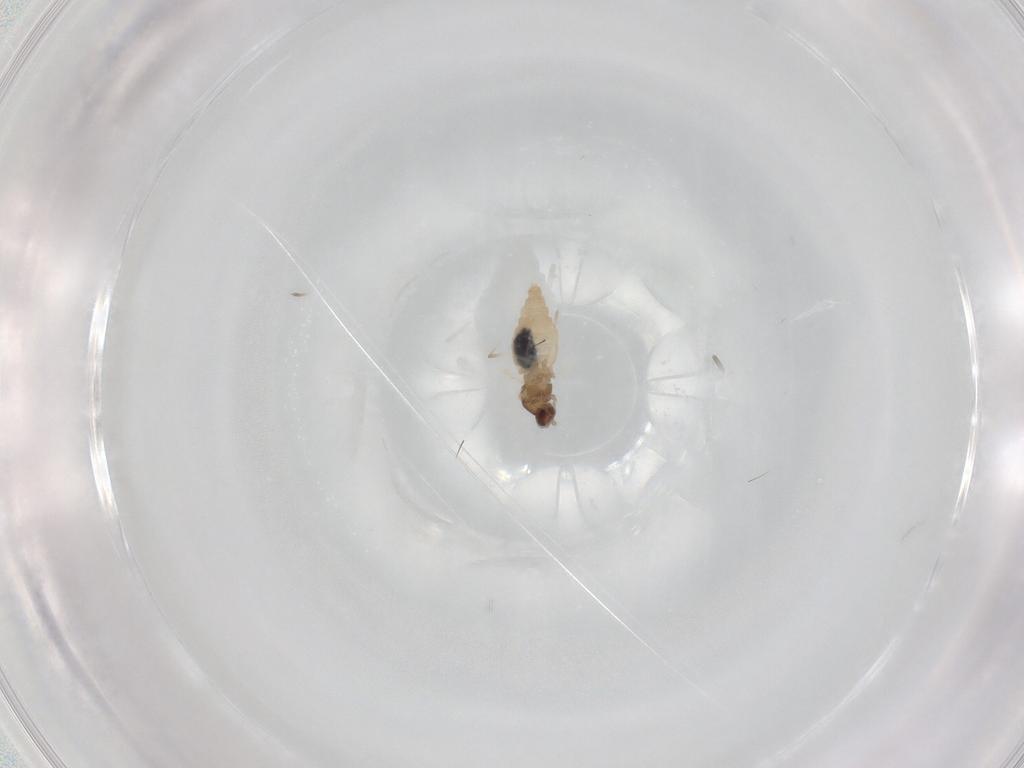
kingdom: Animalia
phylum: Arthropoda
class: Insecta
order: Diptera
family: Cecidomyiidae
